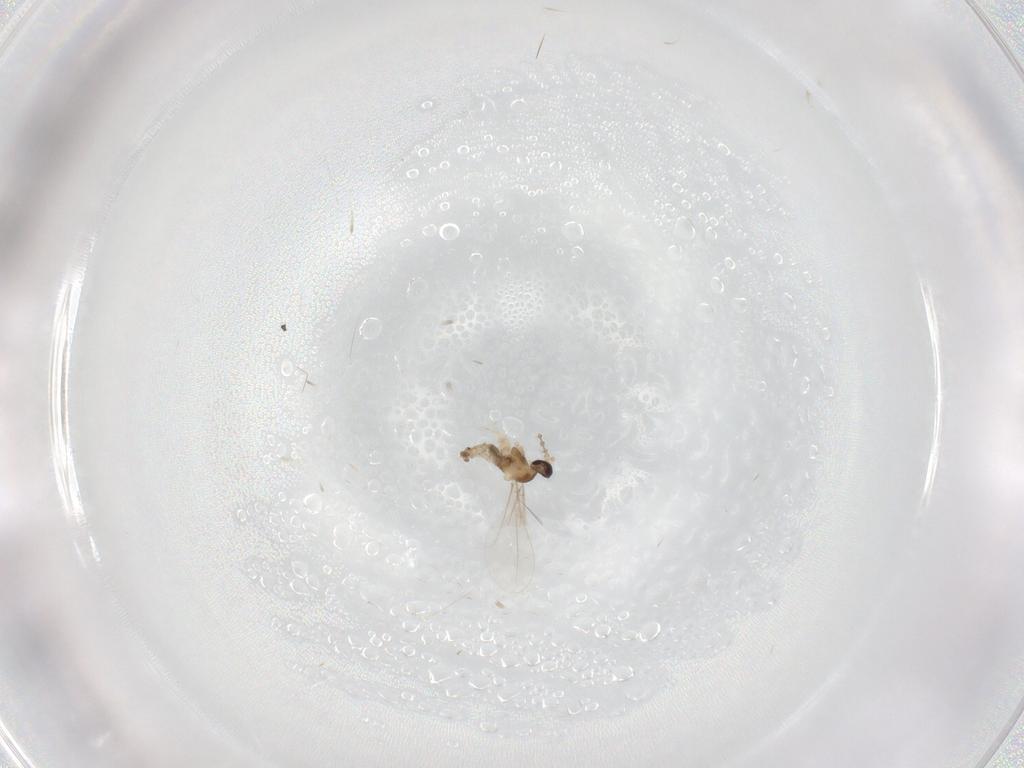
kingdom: Animalia
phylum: Arthropoda
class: Insecta
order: Diptera
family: Cecidomyiidae
